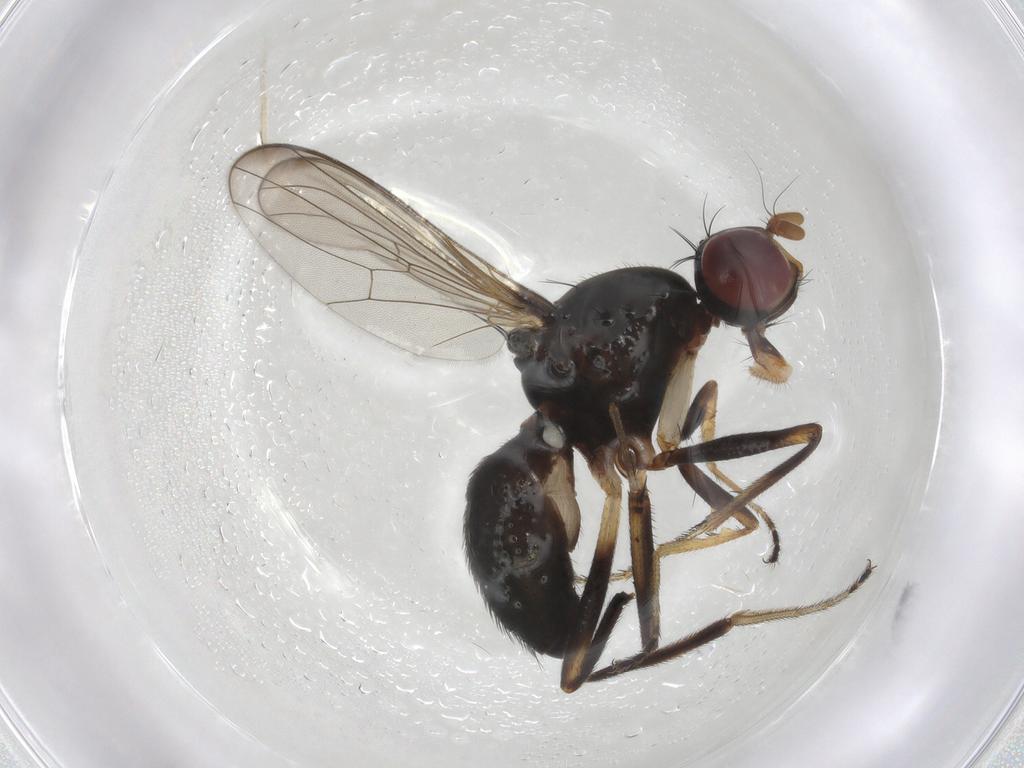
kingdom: Animalia
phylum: Arthropoda
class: Insecta
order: Diptera
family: Sepsidae
